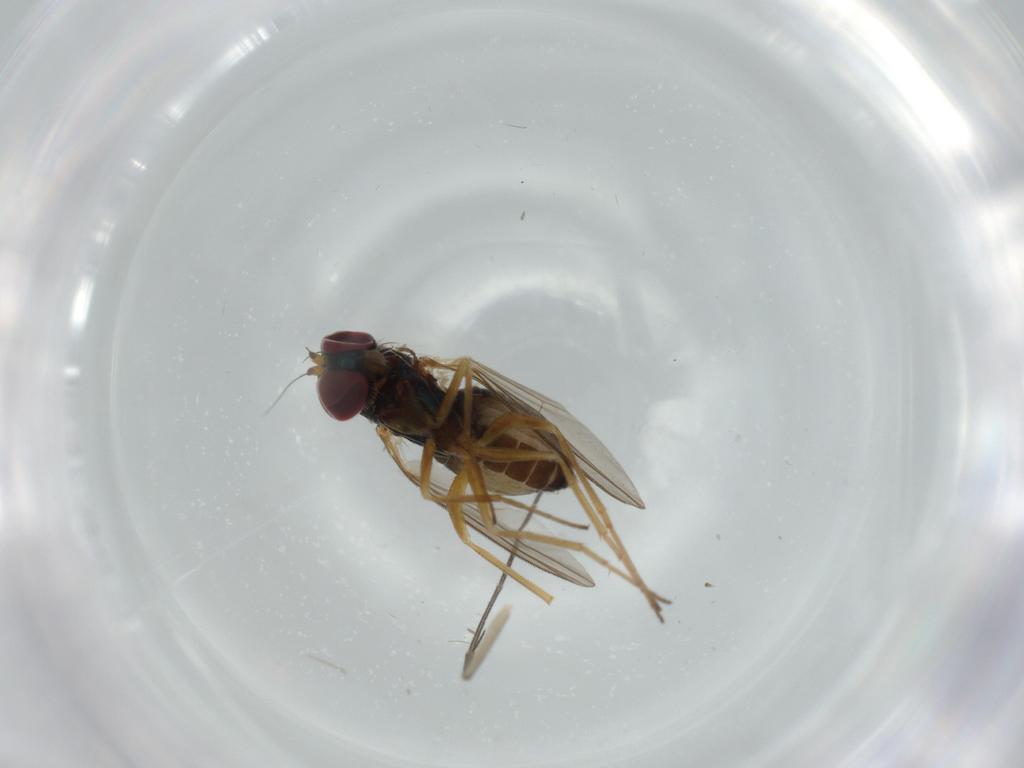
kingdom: Animalia
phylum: Arthropoda
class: Insecta
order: Diptera
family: Dolichopodidae
